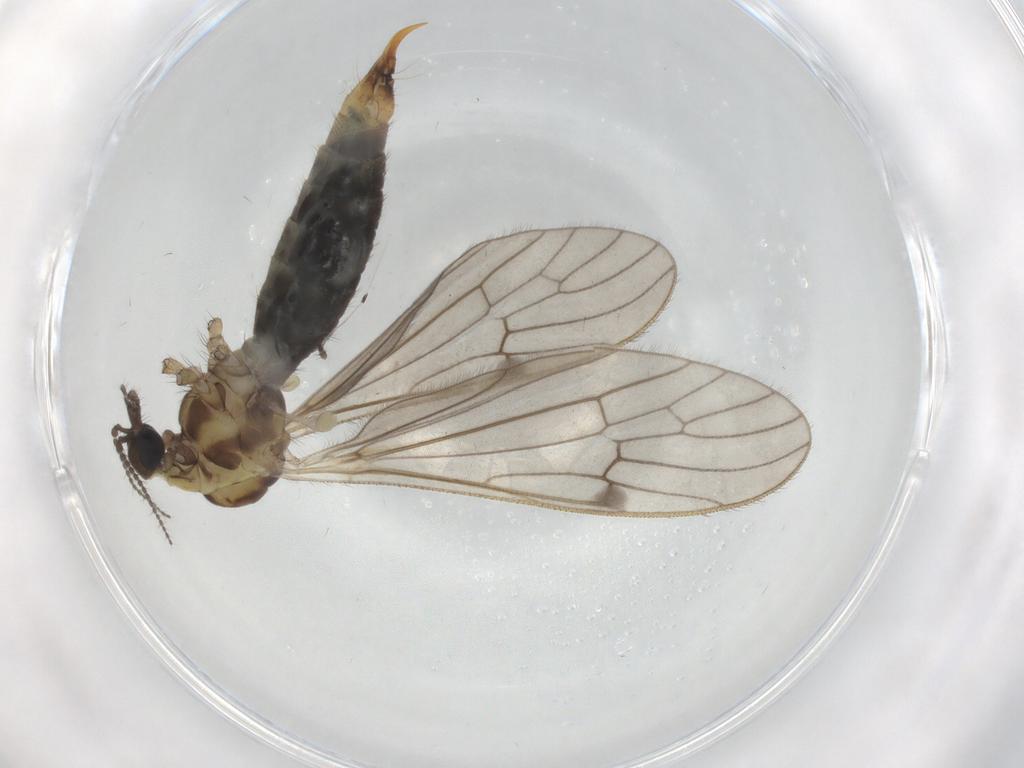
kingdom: Animalia
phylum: Arthropoda
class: Insecta
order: Diptera
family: Limoniidae
